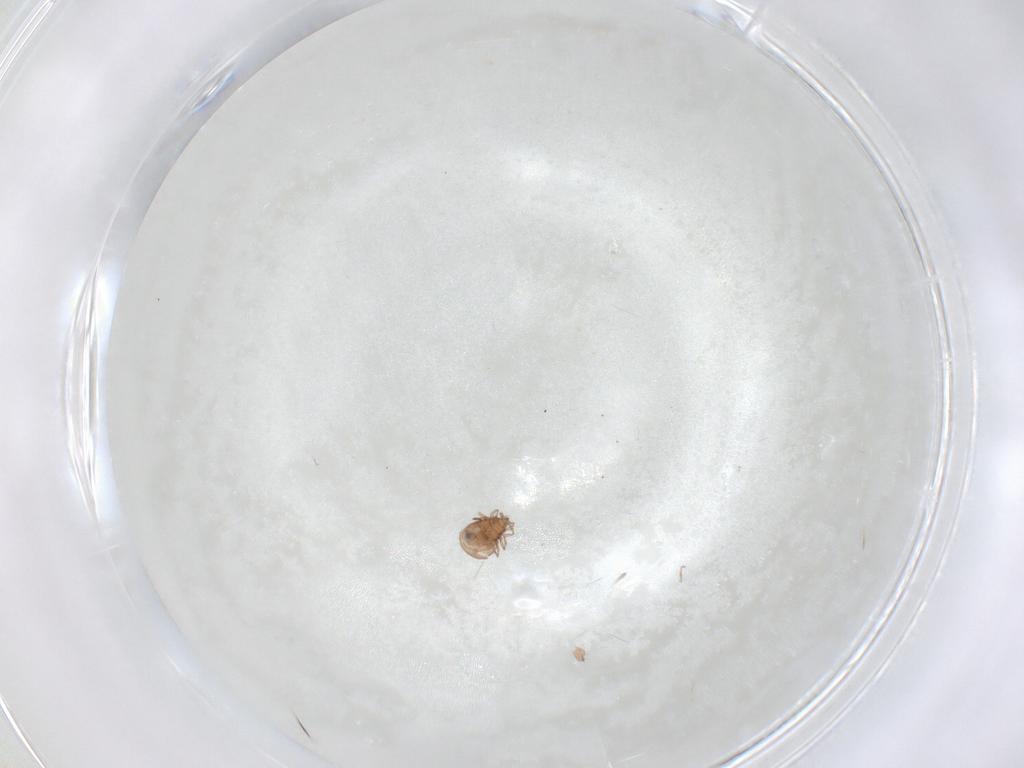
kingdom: Animalia
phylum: Arthropoda
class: Arachnida
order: Sarcoptiformes
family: Oribatulidae
